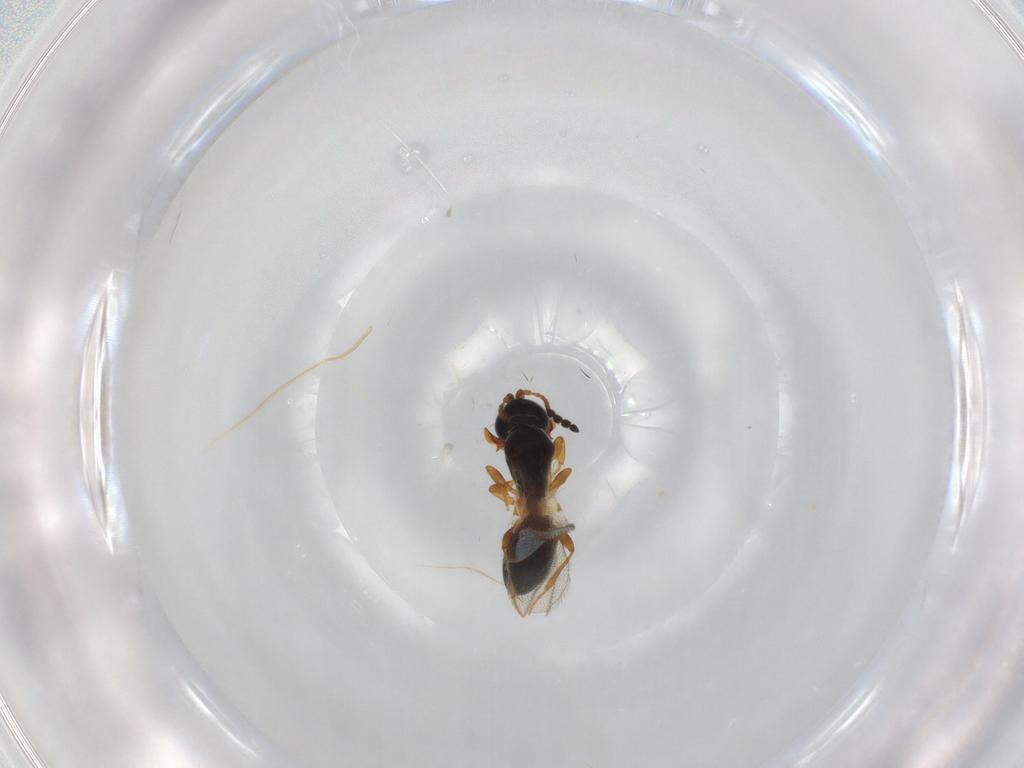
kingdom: Animalia
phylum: Arthropoda
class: Insecta
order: Hymenoptera
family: Diapriidae
